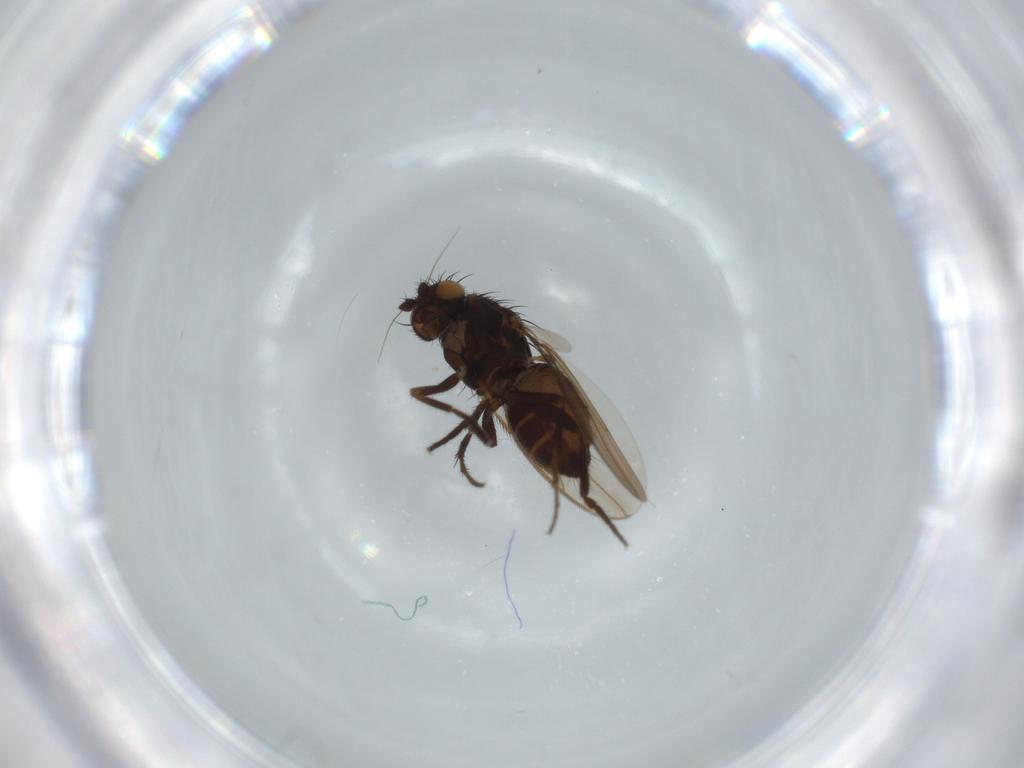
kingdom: Animalia
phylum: Arthropoda
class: Insecta
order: Diptera
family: Sphaeroceridae
